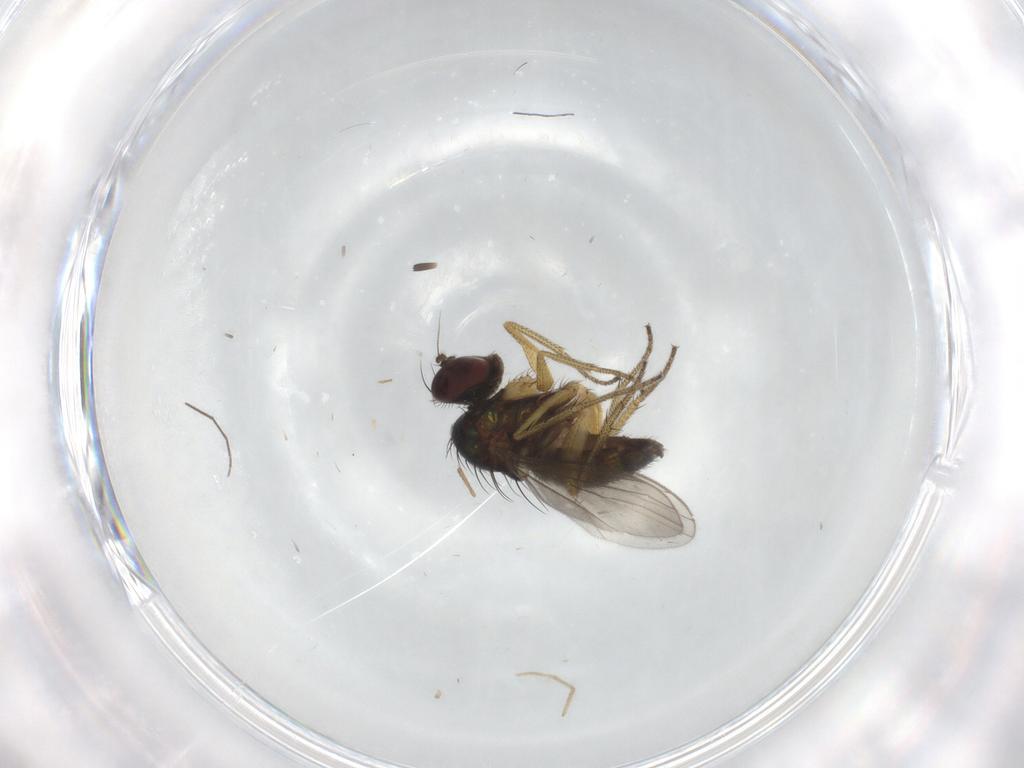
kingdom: Animalia
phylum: Arthropoda
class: Insecta
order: Diptera
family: Chironomidae
